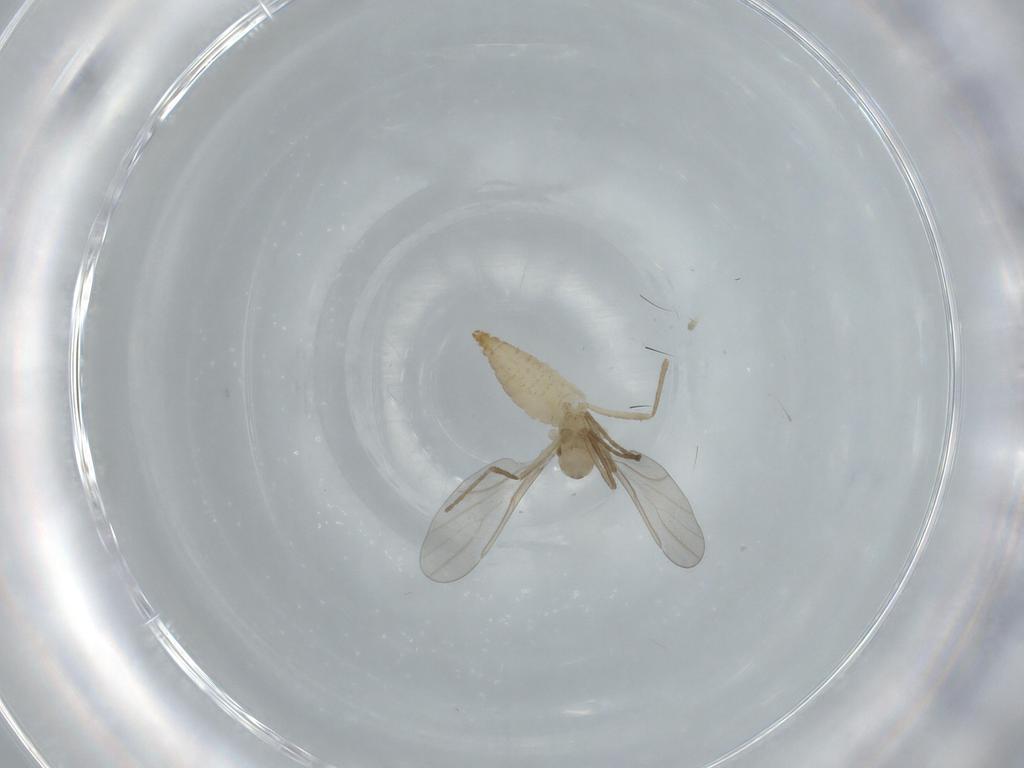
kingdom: Animalia
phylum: Arthropoda
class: Insecta
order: Diptera
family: Cecidomyiidae
